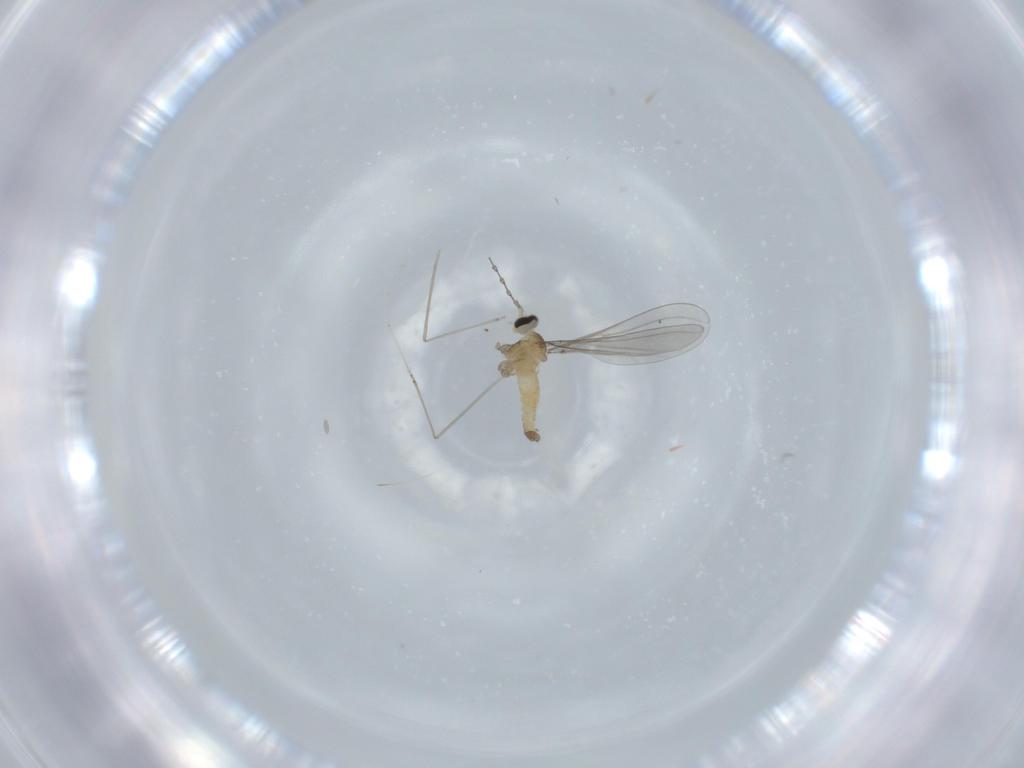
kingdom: Animalia
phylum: Arthropoda
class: Insecta
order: Diptera
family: Cecidomyiidae
